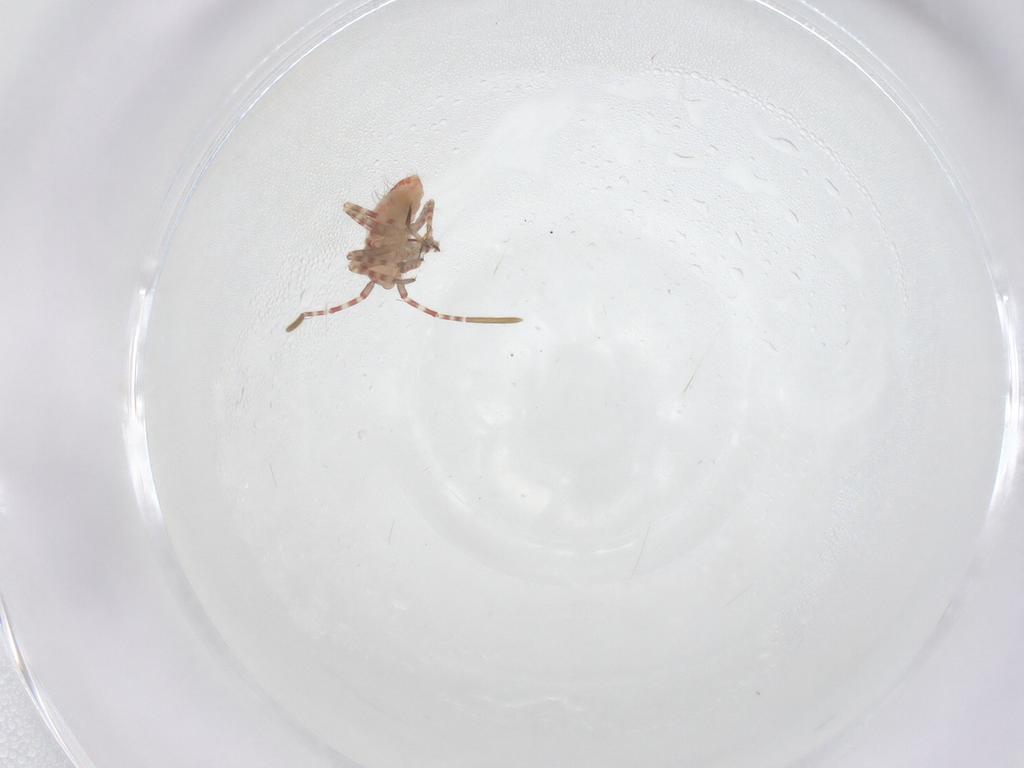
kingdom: Animalia
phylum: Arthropoda
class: Insecta
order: Hemiptera
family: Miridae
